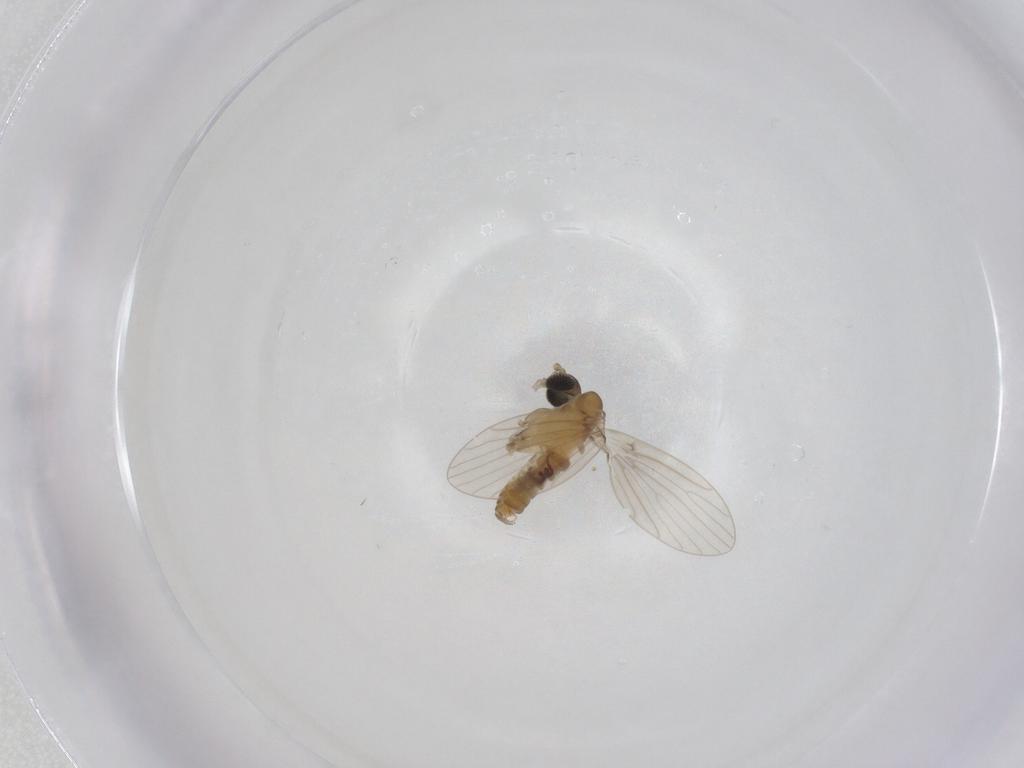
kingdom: Animalia
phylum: Arthropoda
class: Insecta
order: Diptera
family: Psychodidae
